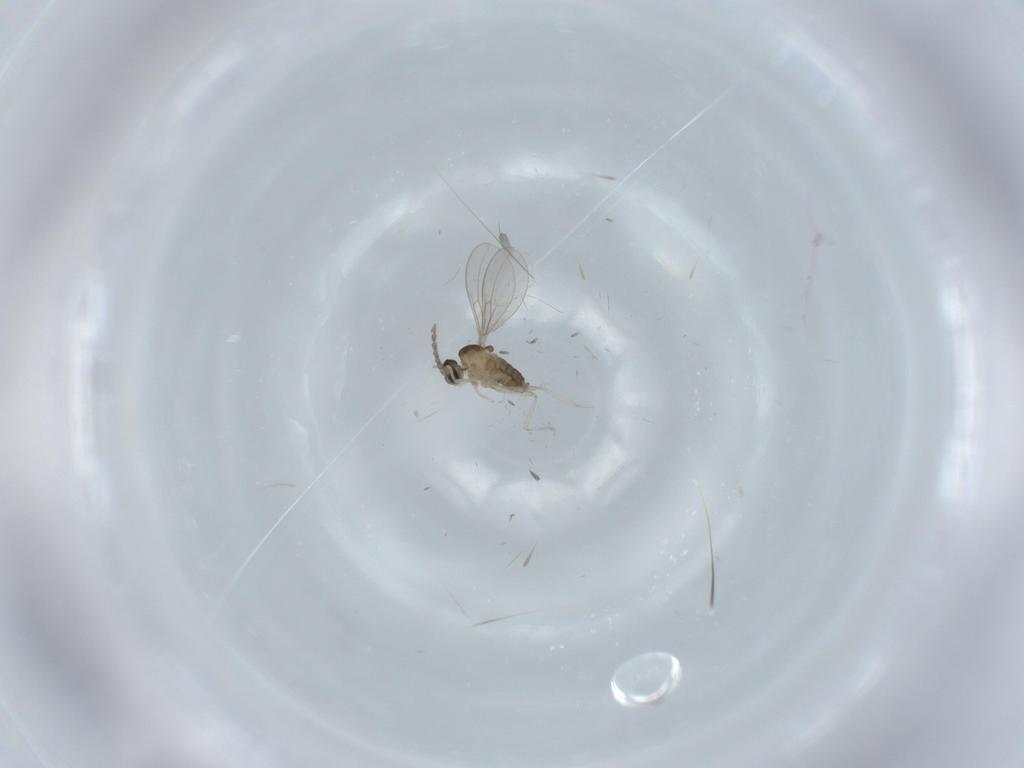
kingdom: Animalia
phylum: Arthropoda
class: Insecta
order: Diptera
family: Cecidomyiidae
